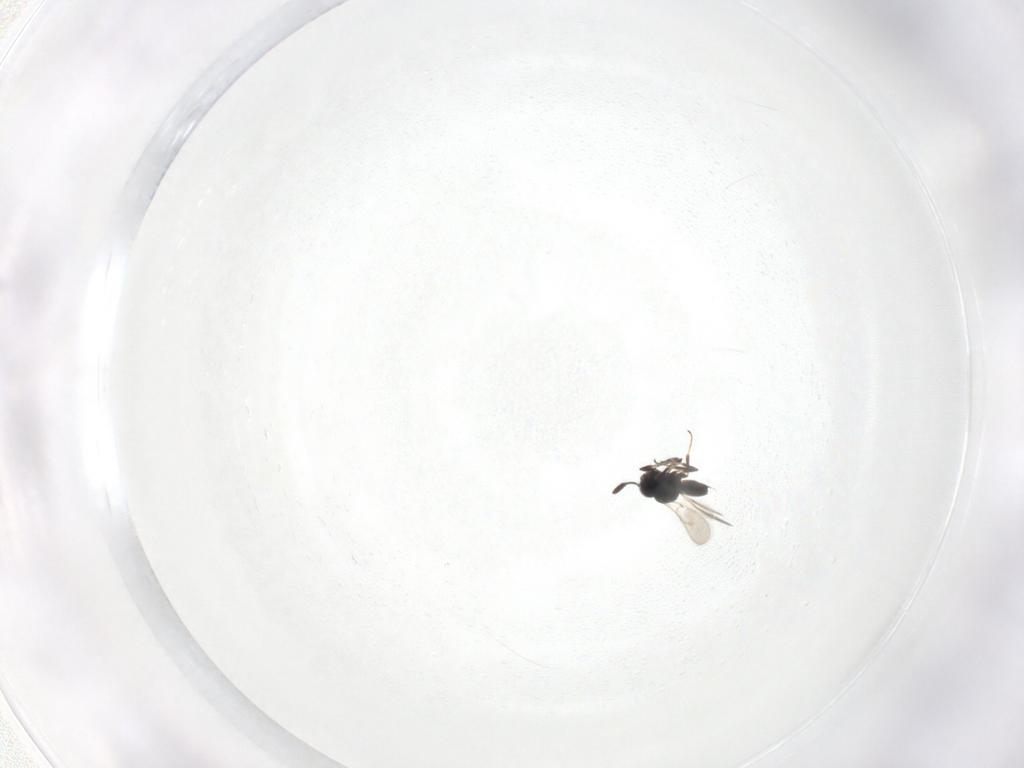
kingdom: Animalia
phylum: Arthropoda
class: Insecta
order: Hymenoptera
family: Scelionidae
